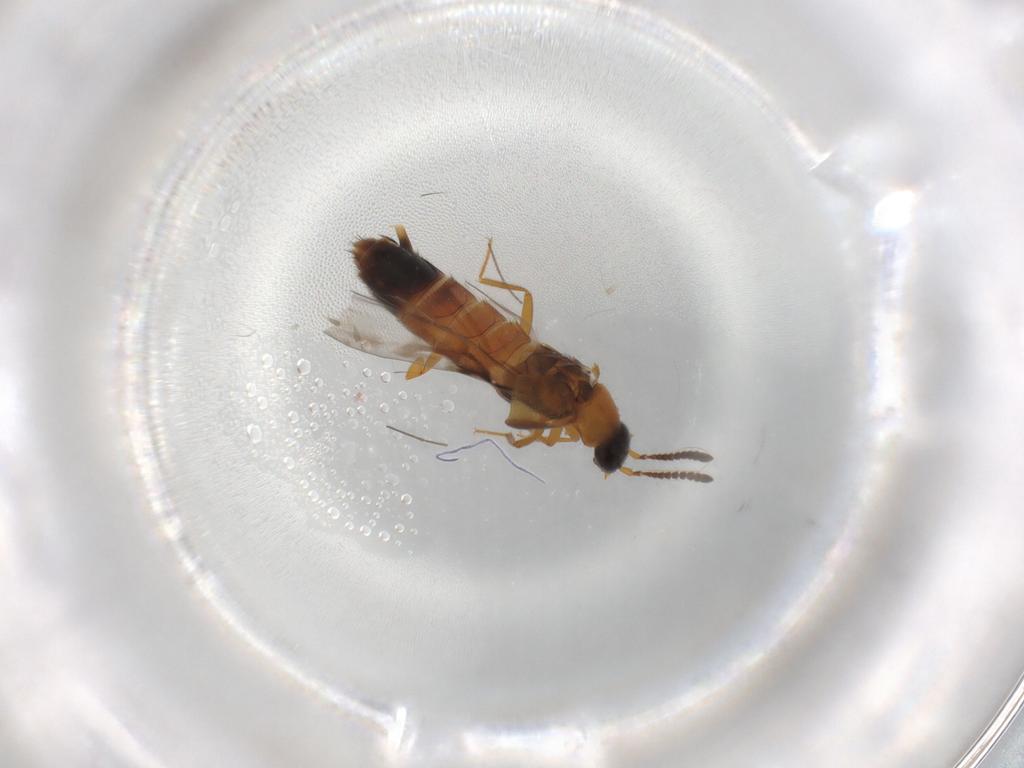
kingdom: Animalia
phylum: Arthropoda
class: Insecta
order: Coleoptera
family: Staphylinidae
